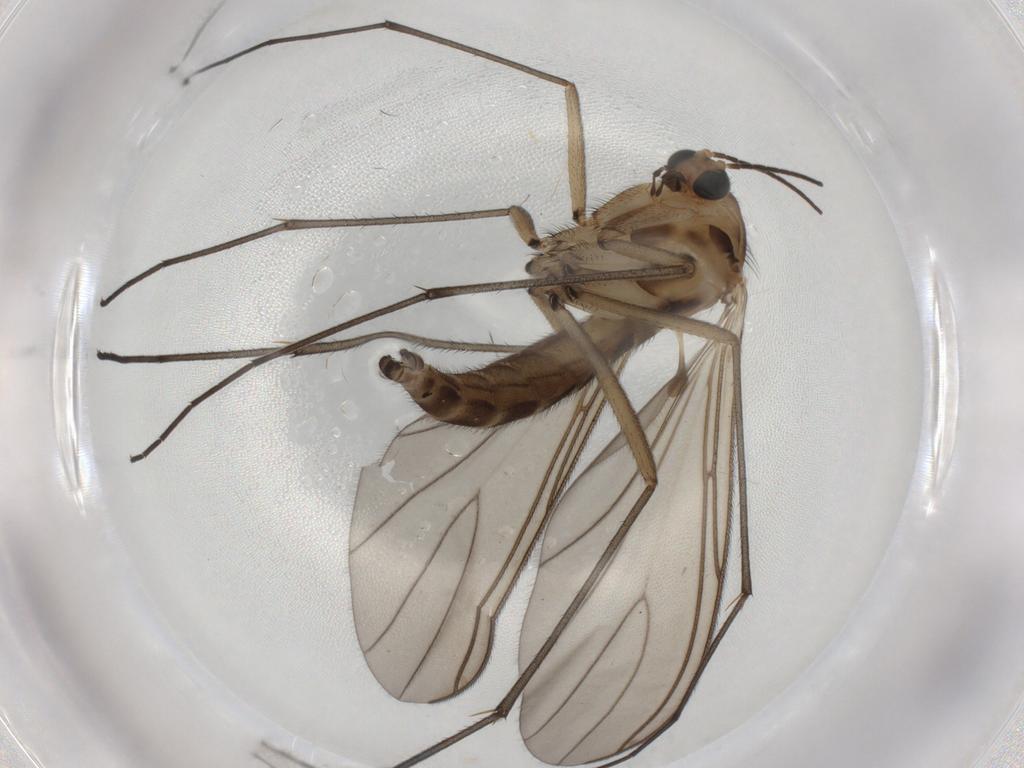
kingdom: Animalia
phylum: Arthropoda
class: Insecta
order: Diptera
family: Sciaridae
